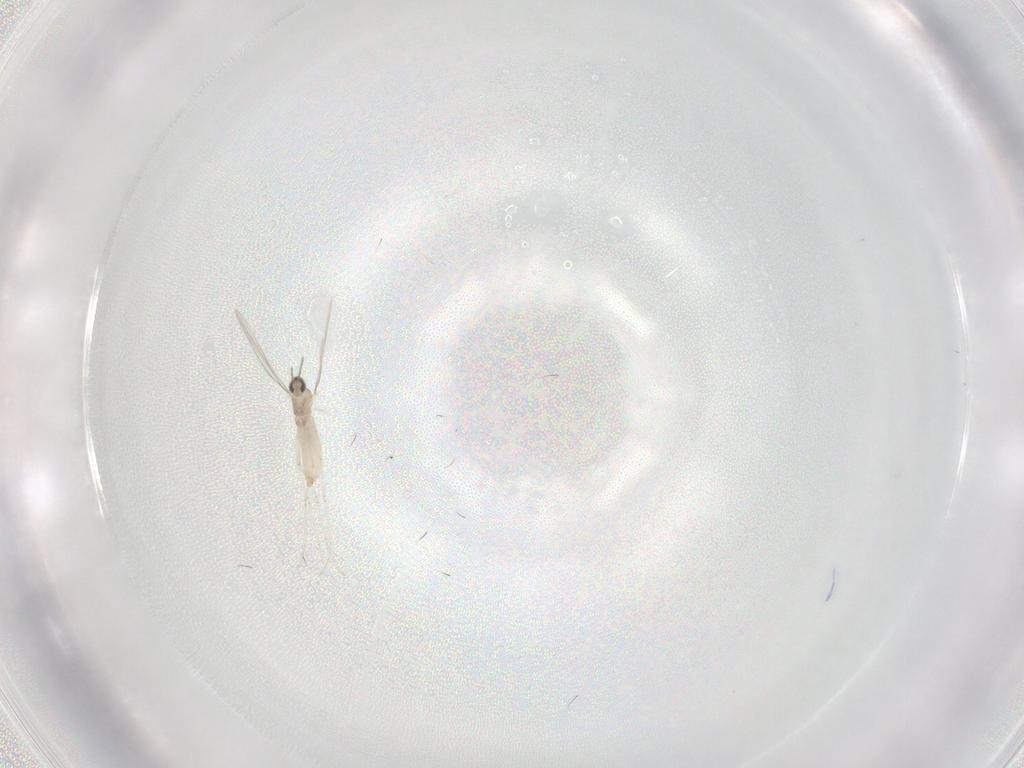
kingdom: Animalia
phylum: Arthropoda
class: Insecta
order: Diptera
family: Cecidomyiidae
